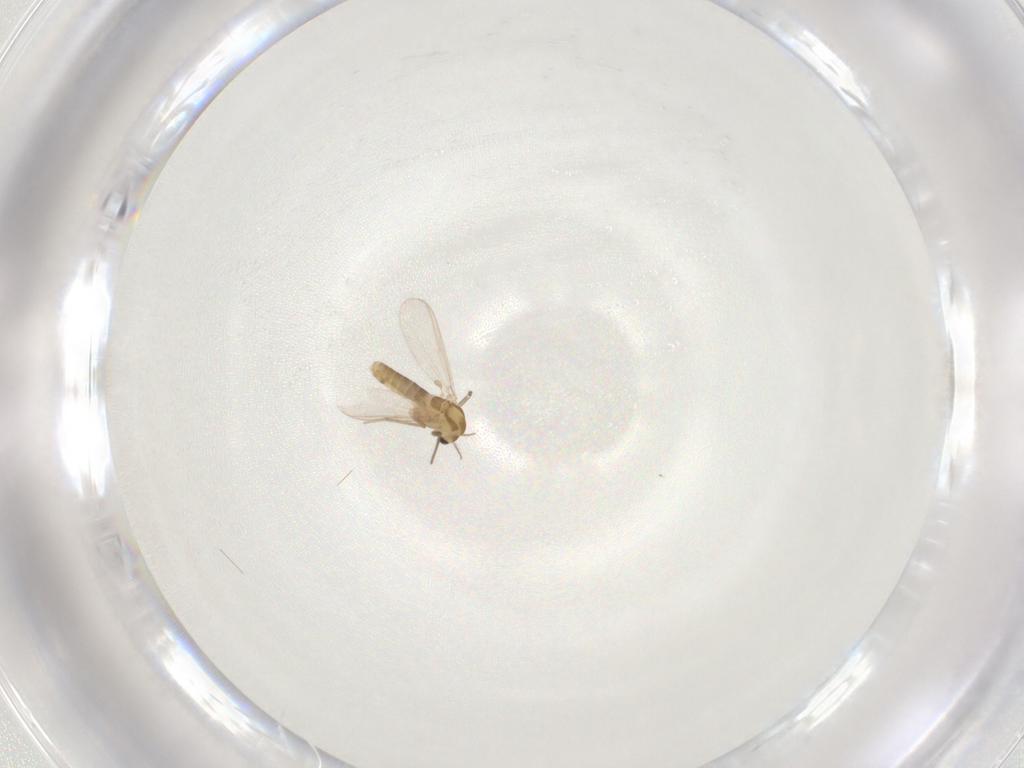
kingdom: Animalia
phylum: Arthropoda
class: Insecta
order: Diptera
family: Chironomidae
